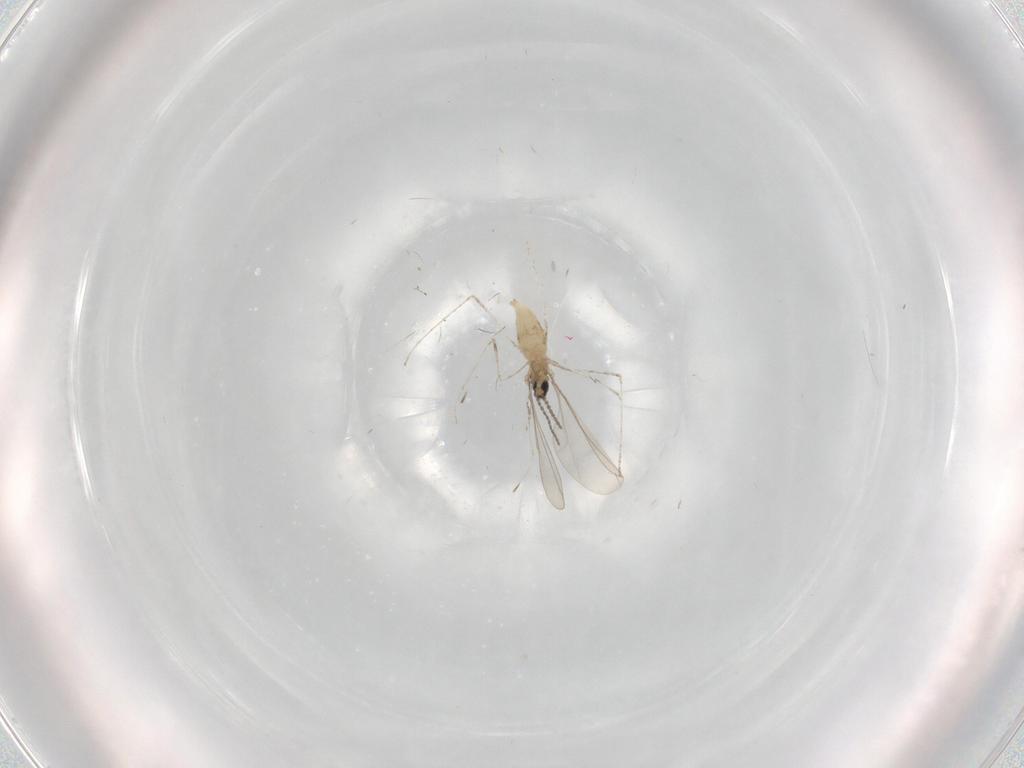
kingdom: Animalia
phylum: Arthropoda
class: Insecta
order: Diptera
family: Cecidomyiidae
